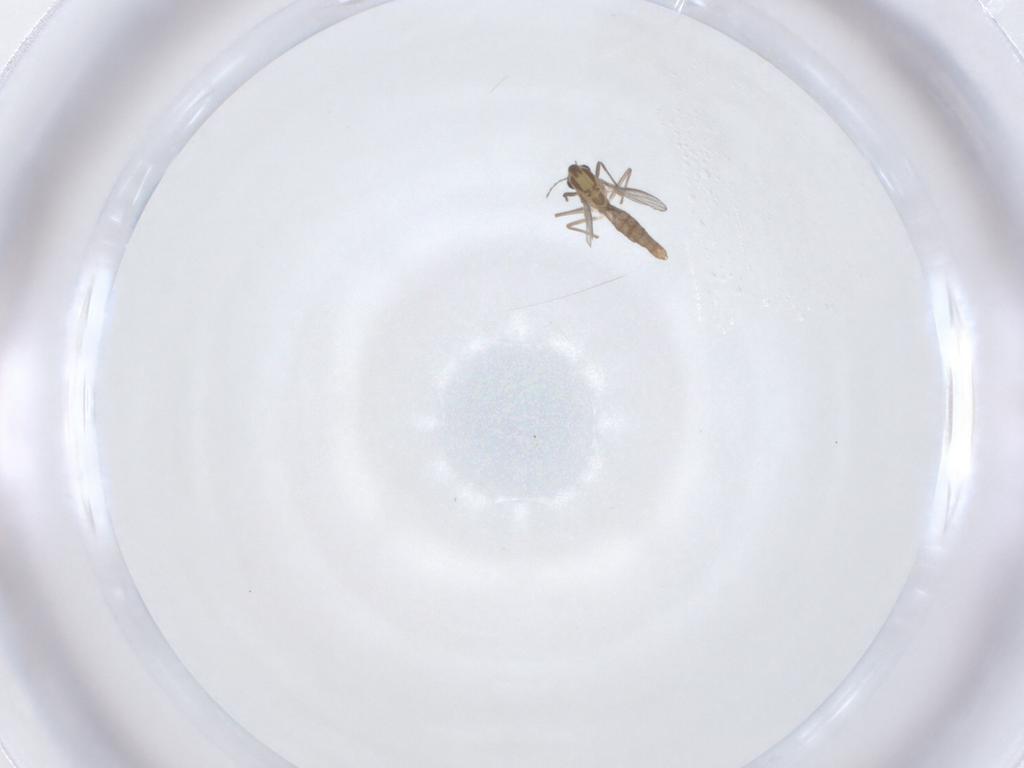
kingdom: Animalia
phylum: Arthropoda
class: Insecta
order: Diptera
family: Chironomidae
